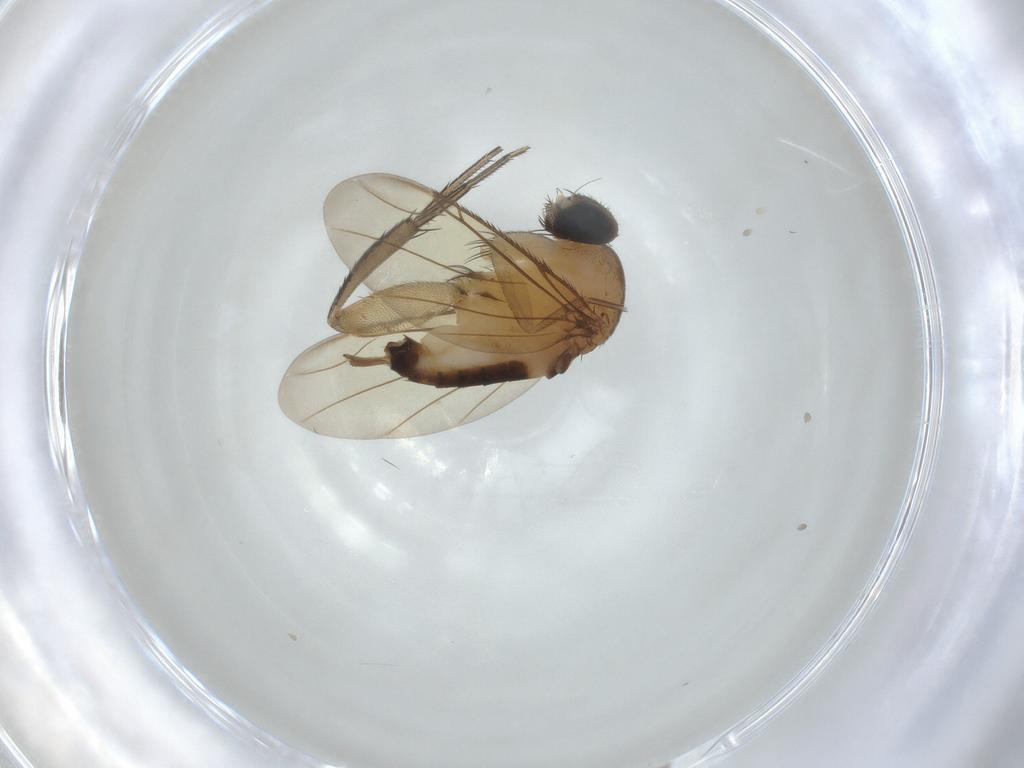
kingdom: Animalia
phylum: Arthropoda
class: Insecta
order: Diptera
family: Phoridae
